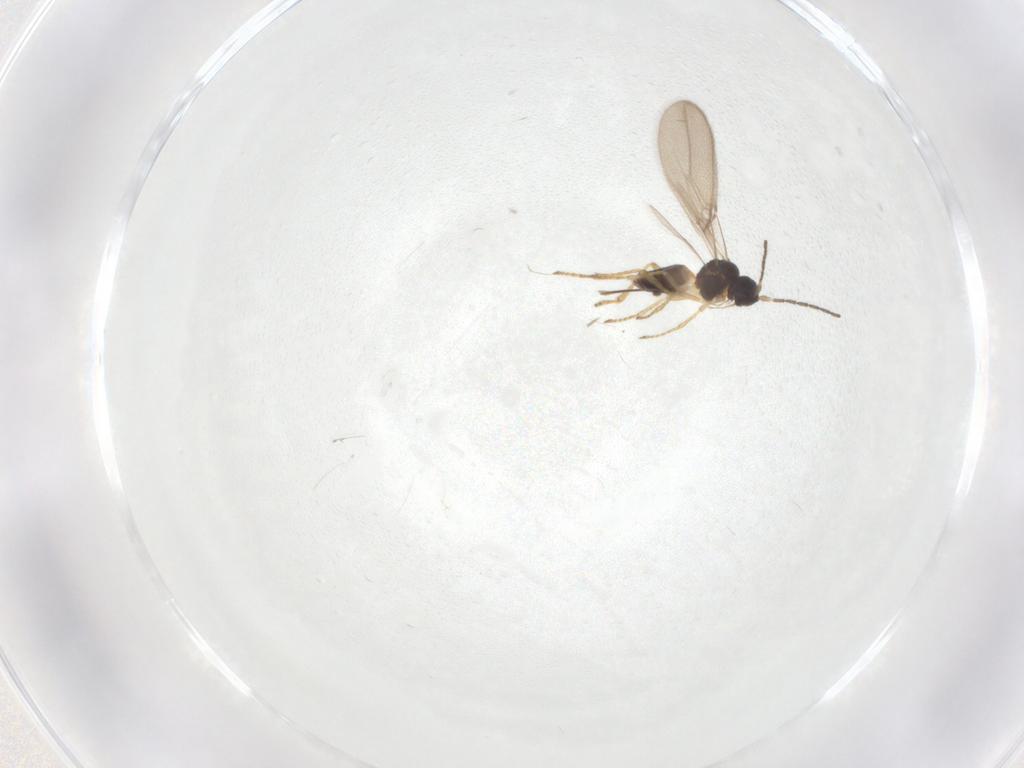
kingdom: Animalia
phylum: Arthropoda
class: Insecta
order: Hymenoptera
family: Braconidae
